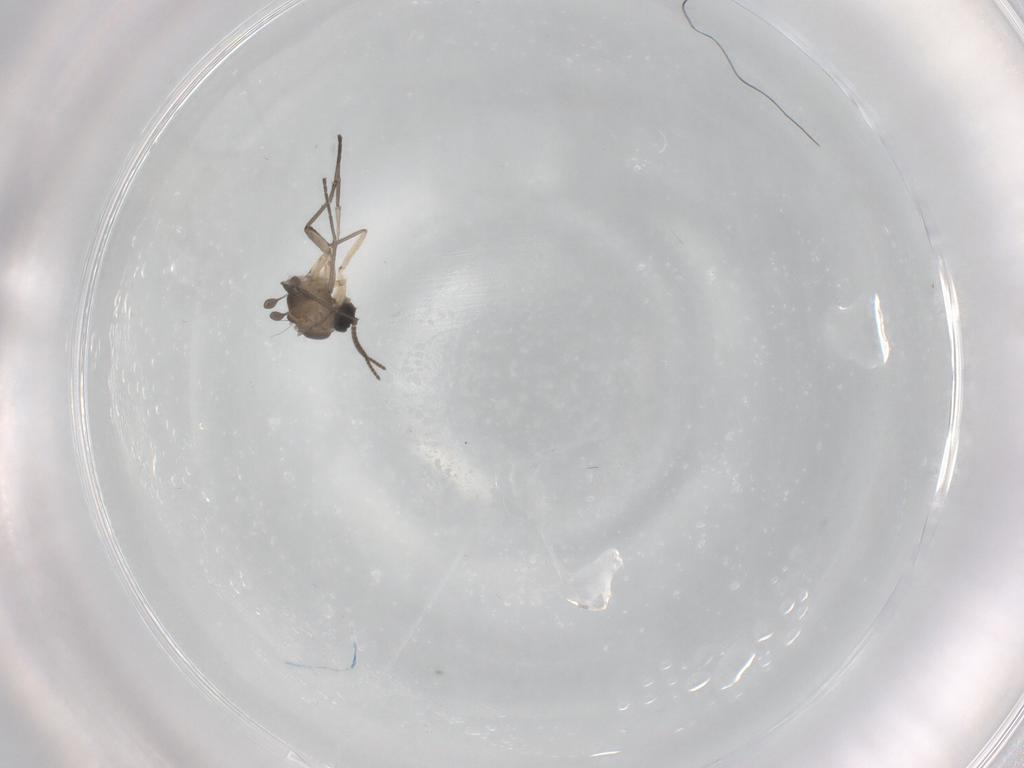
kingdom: Animalia
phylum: Arthropoda
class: Insecta
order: Diptera
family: Sciaridae
